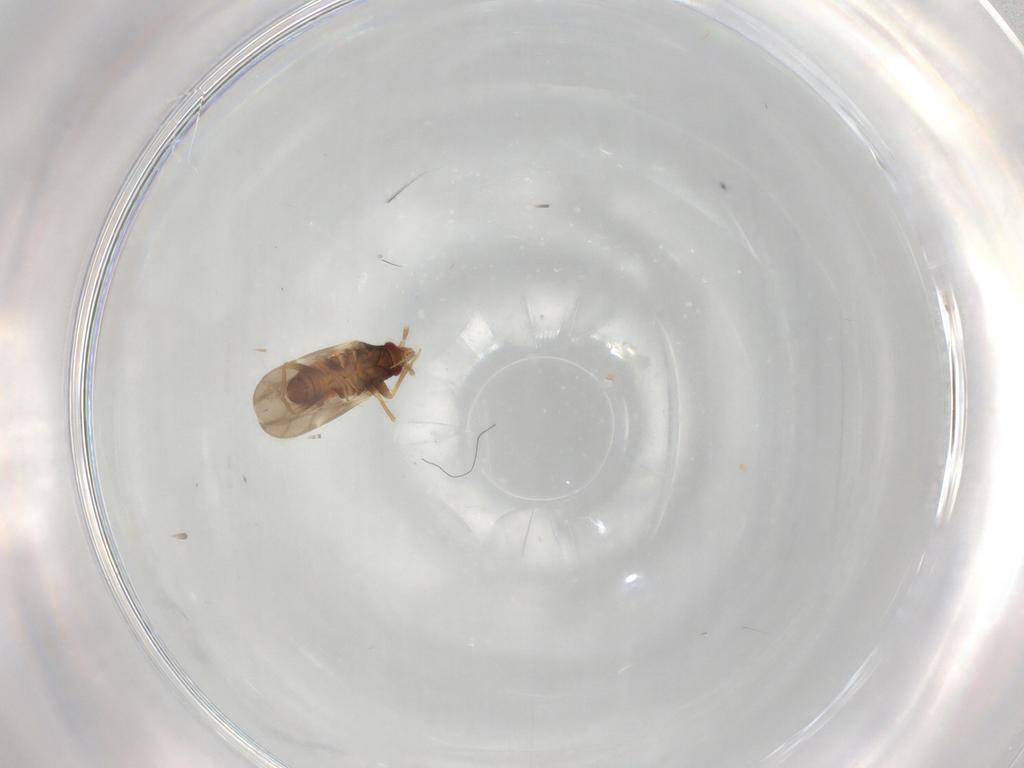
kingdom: Animalia
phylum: Arthropoda
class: Insecta
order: Hemiptera
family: Ceratocombidae
